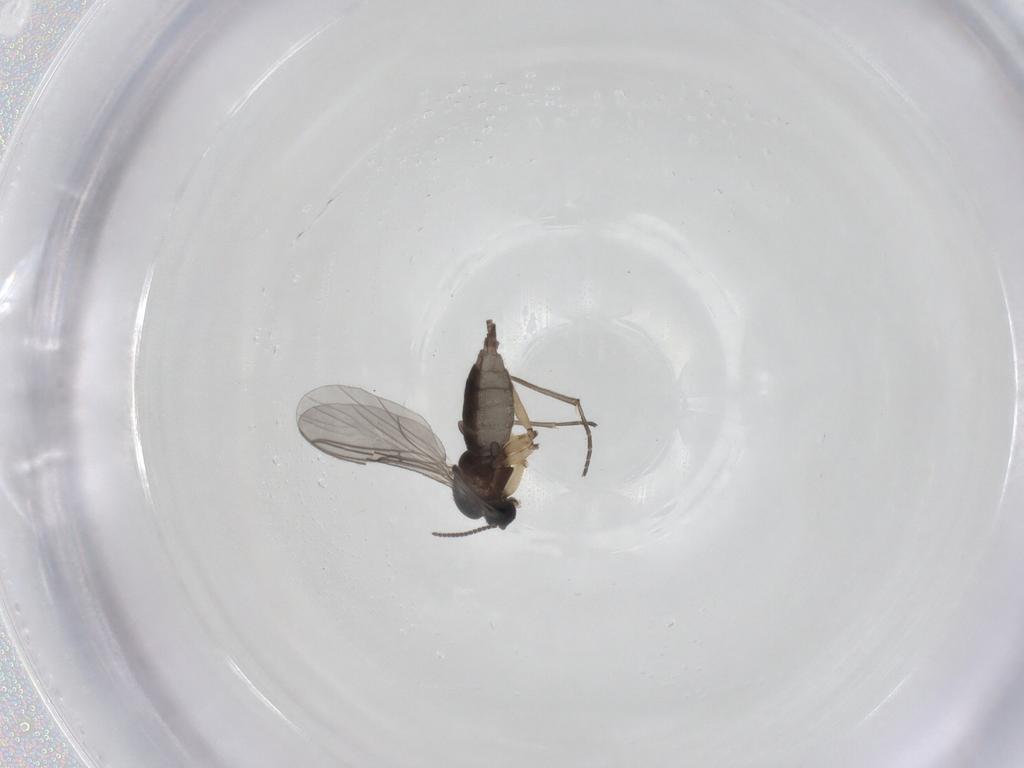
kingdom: Animalia
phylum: Arthropoda
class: Insecta
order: Diptera
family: Sciaridae
